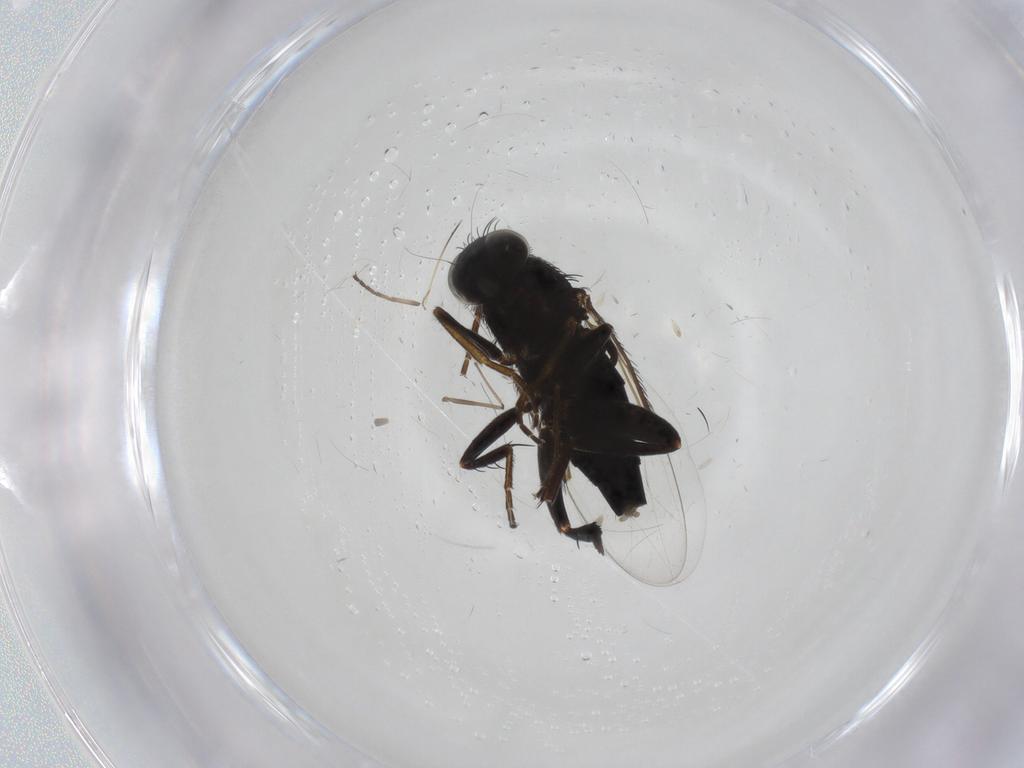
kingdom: Animalia
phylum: Arthropoda
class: Insecta
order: Diptera
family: Phoridae
